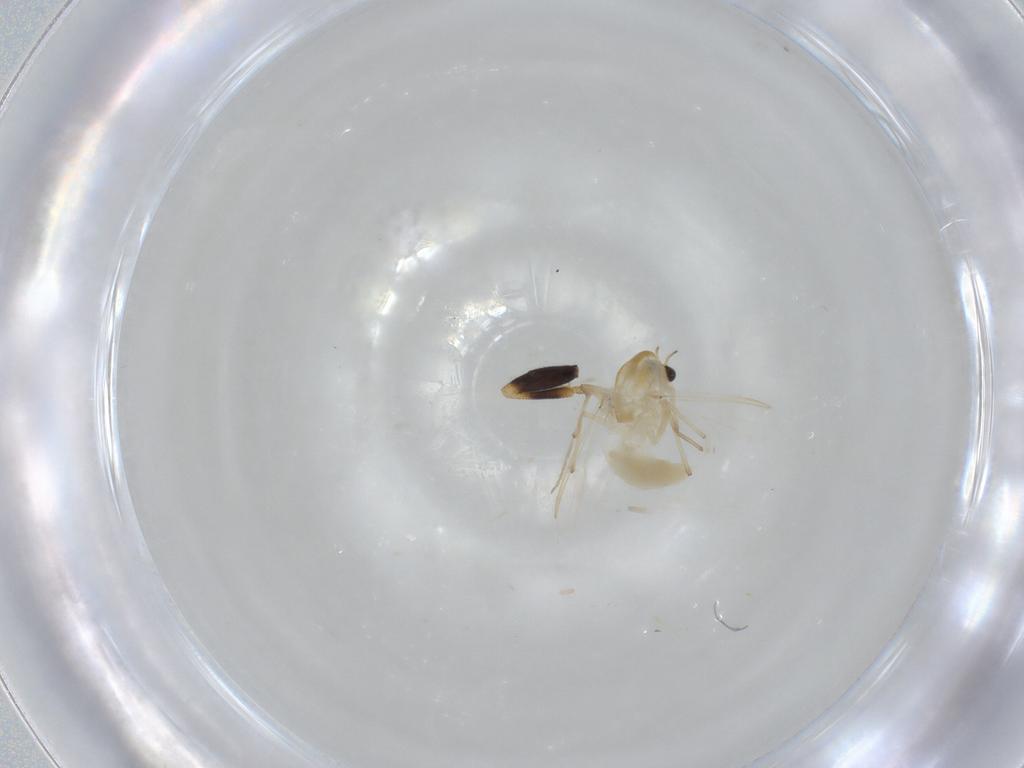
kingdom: Animalia
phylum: Arthropoda
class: Insecta
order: Diptera
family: Pipunculidae
